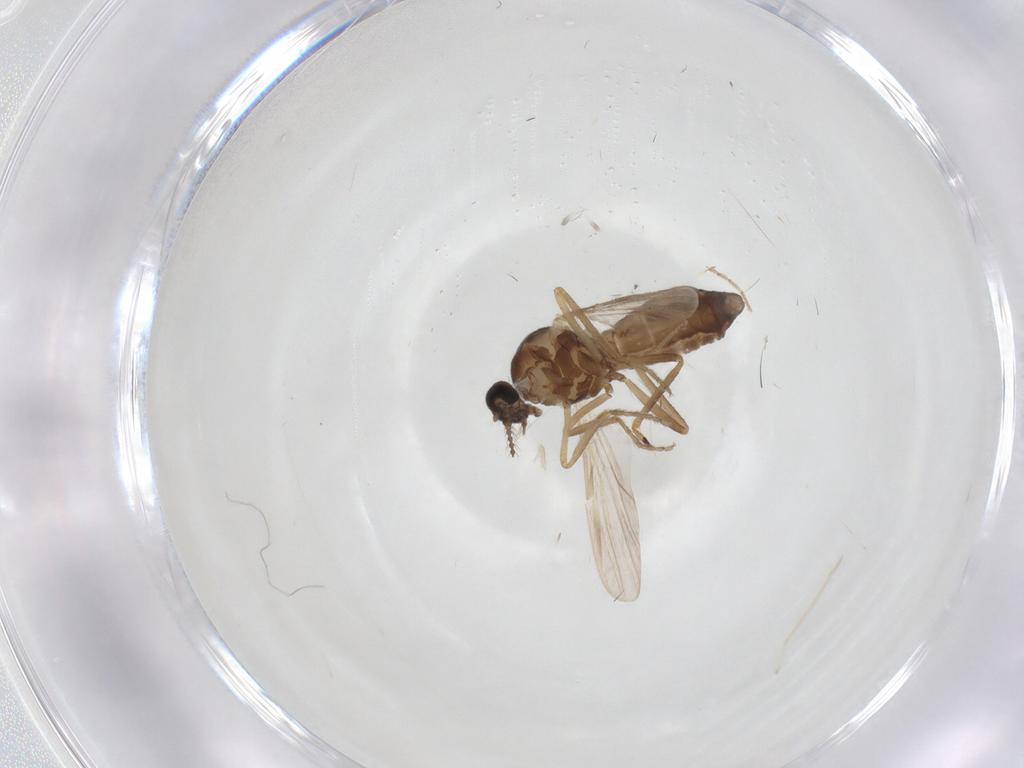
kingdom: Animalia
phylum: Arthropoda
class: Insecta
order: Diptera
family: Ceratopogonidae
